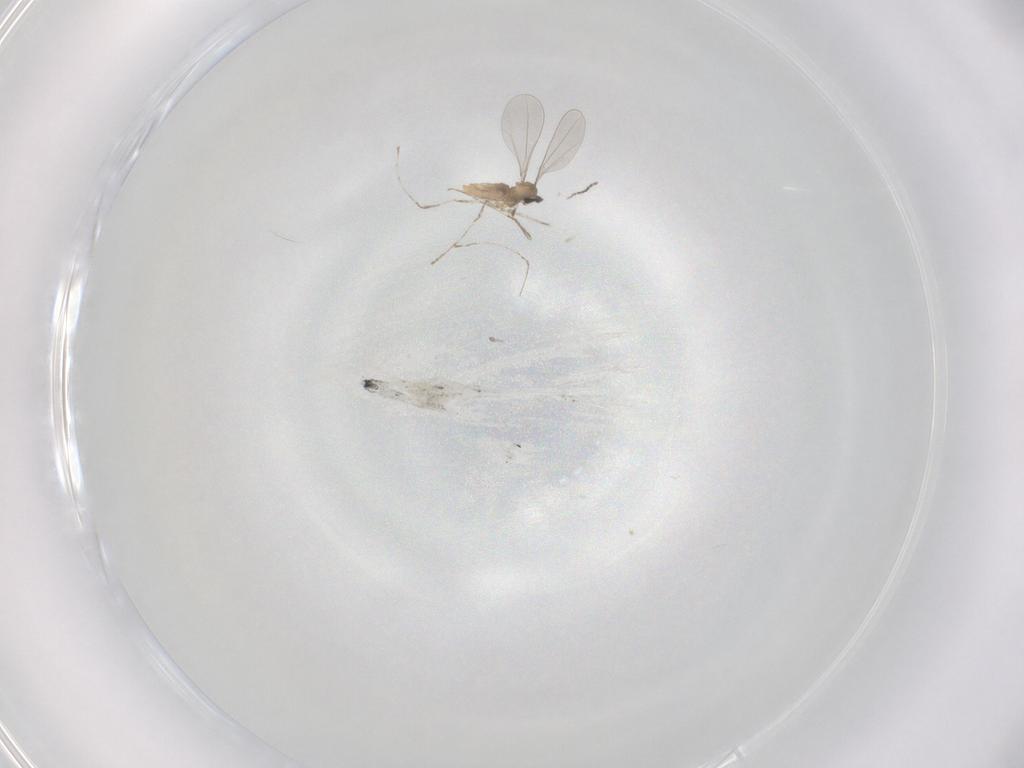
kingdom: Animalia
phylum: Arthropoda
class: Insecta
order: Diptera
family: Cecidomyiidae
